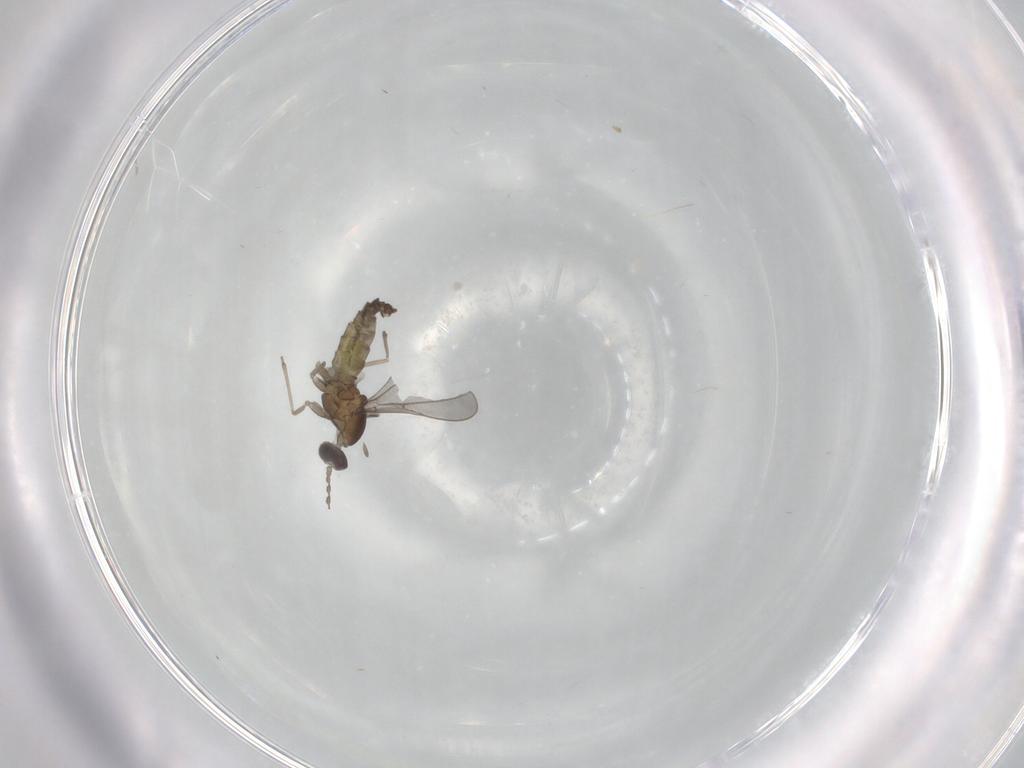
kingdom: Animalia
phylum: Arthropoda
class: Insecta
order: Diptera
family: Phoridae
